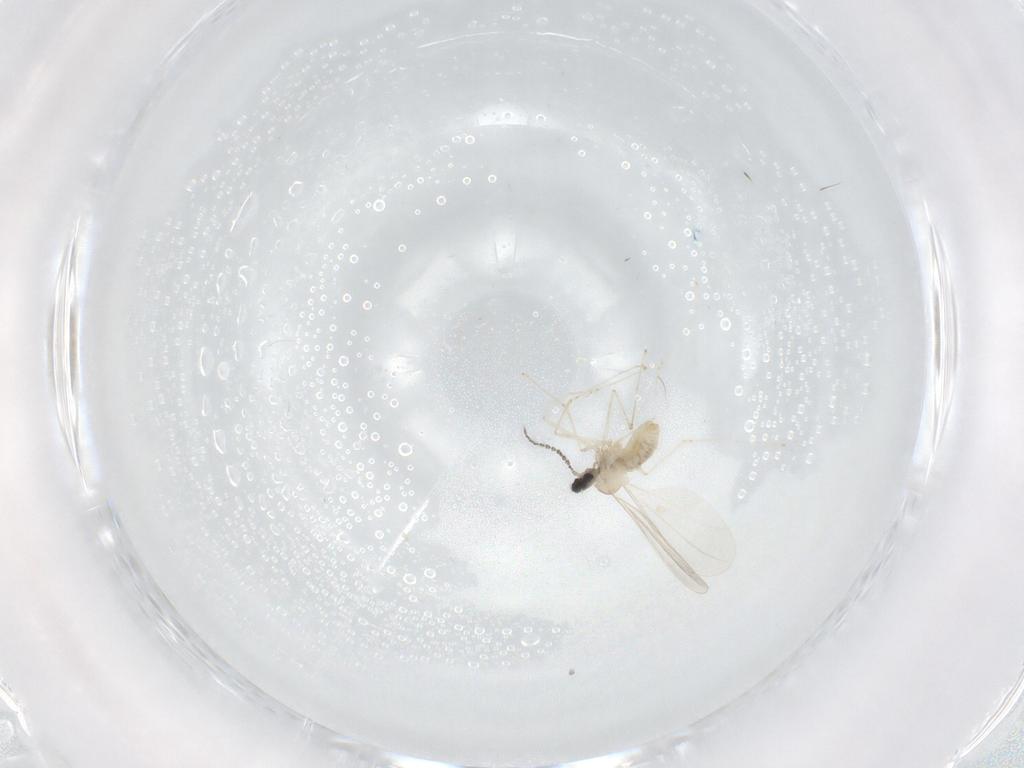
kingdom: Animalia
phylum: Arthropoda
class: Insecta
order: Diptera
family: Cecidomyiidae
